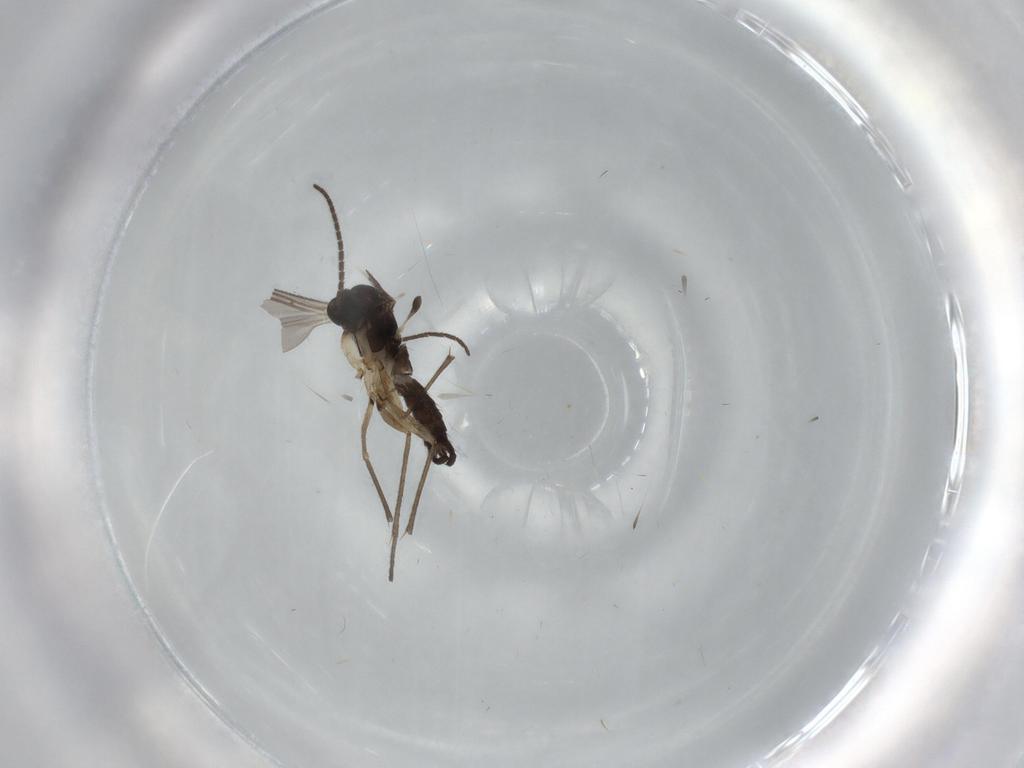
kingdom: Animalia
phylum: Arthropoda
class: Insecta
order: Diptera
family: Sciaridae
